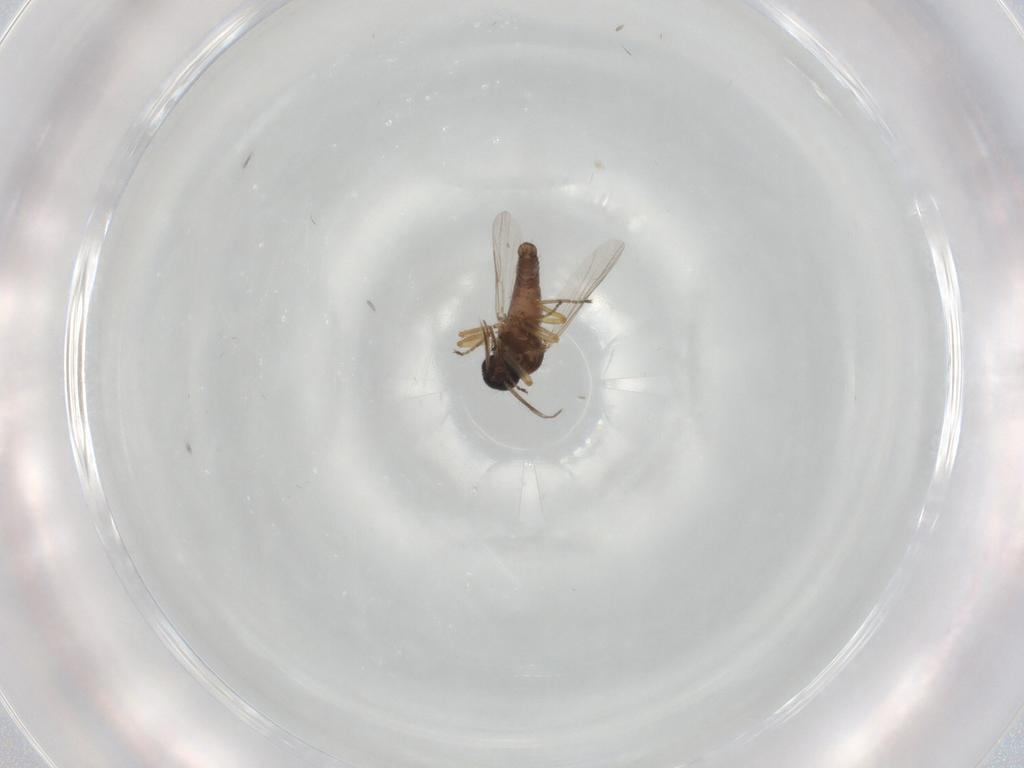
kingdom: Animalia
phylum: Arthropoda
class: Insecta
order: Diptera
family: Ceratopogonidae
